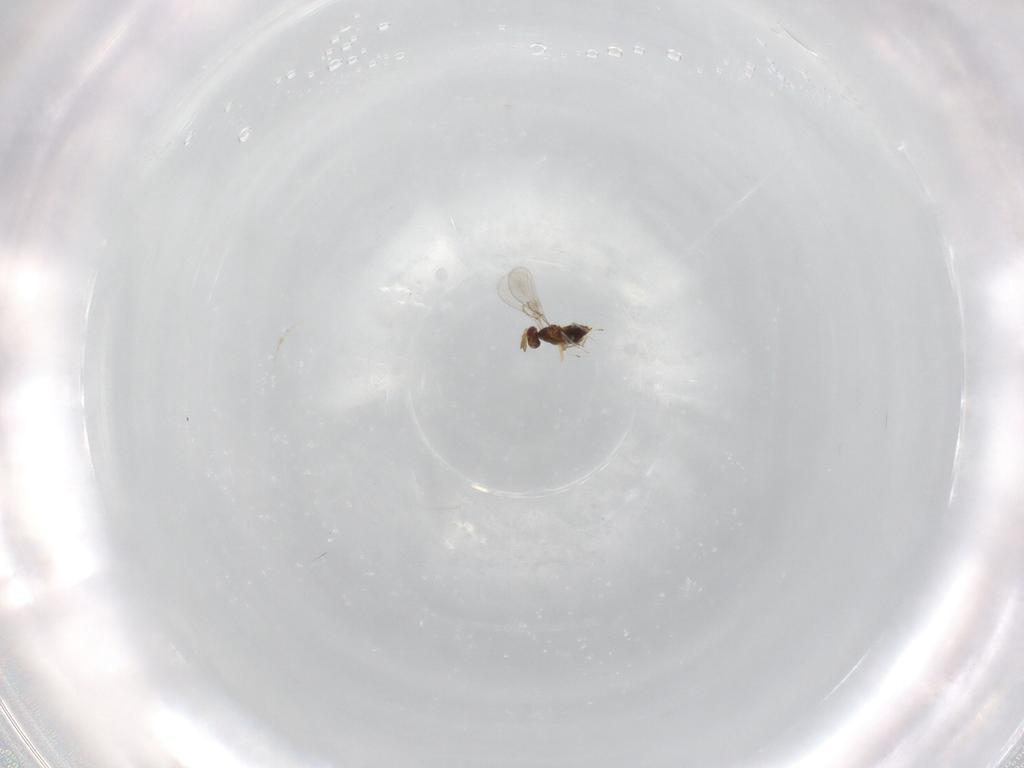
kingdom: Animalia
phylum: Arthropoda
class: Insecta
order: Hymenoptera
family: Trichogrammatidae
